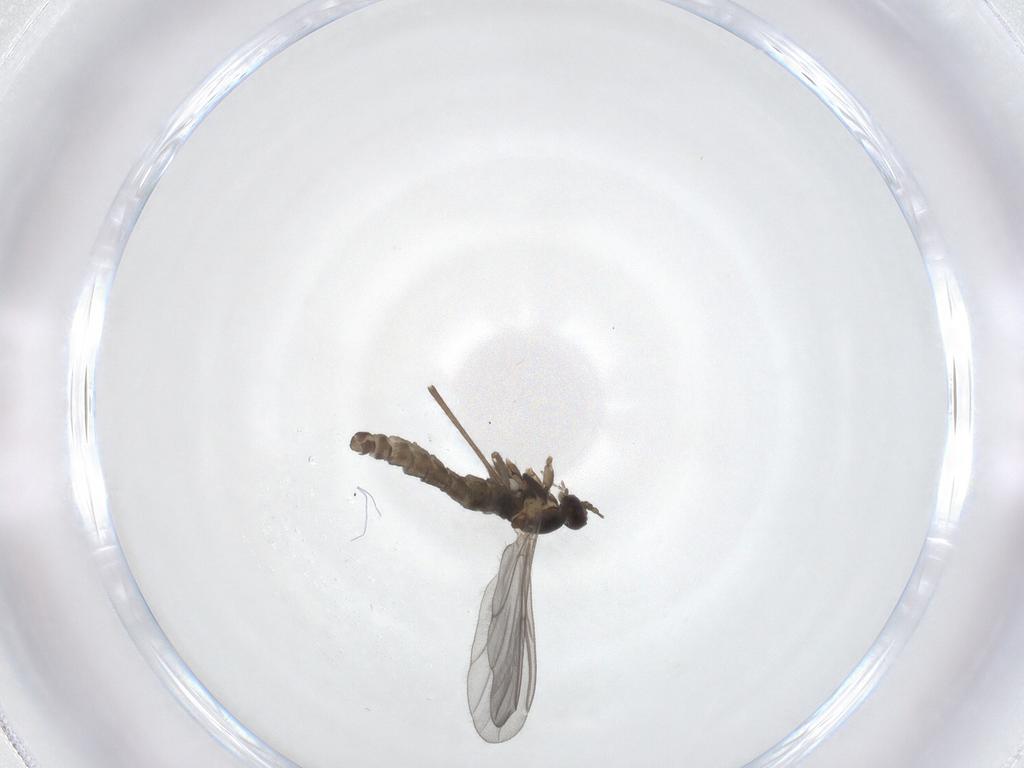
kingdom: Animalia
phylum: Arthropoda
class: Insecta
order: Diptera
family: Cecidomyiidae
